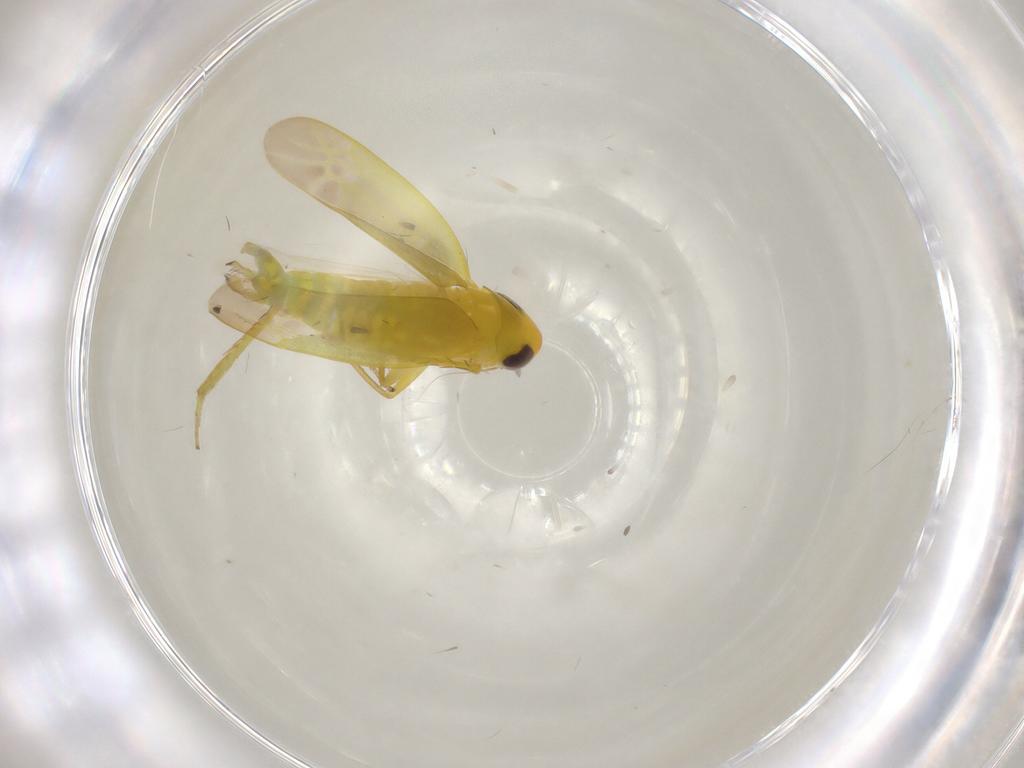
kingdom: Animalia
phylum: Arthropoda
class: Insecta
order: Hemiptera
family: Cicadellidae
